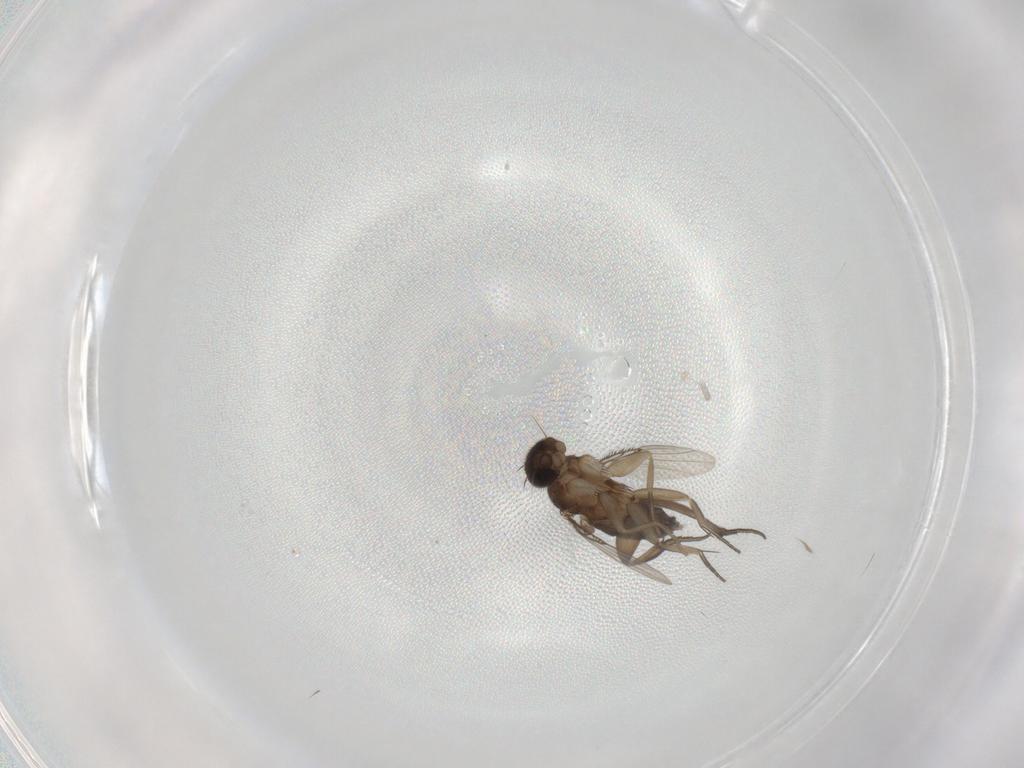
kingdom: Animalia
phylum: Arthropoda
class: Insecta
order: Diptera
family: Phoridae
